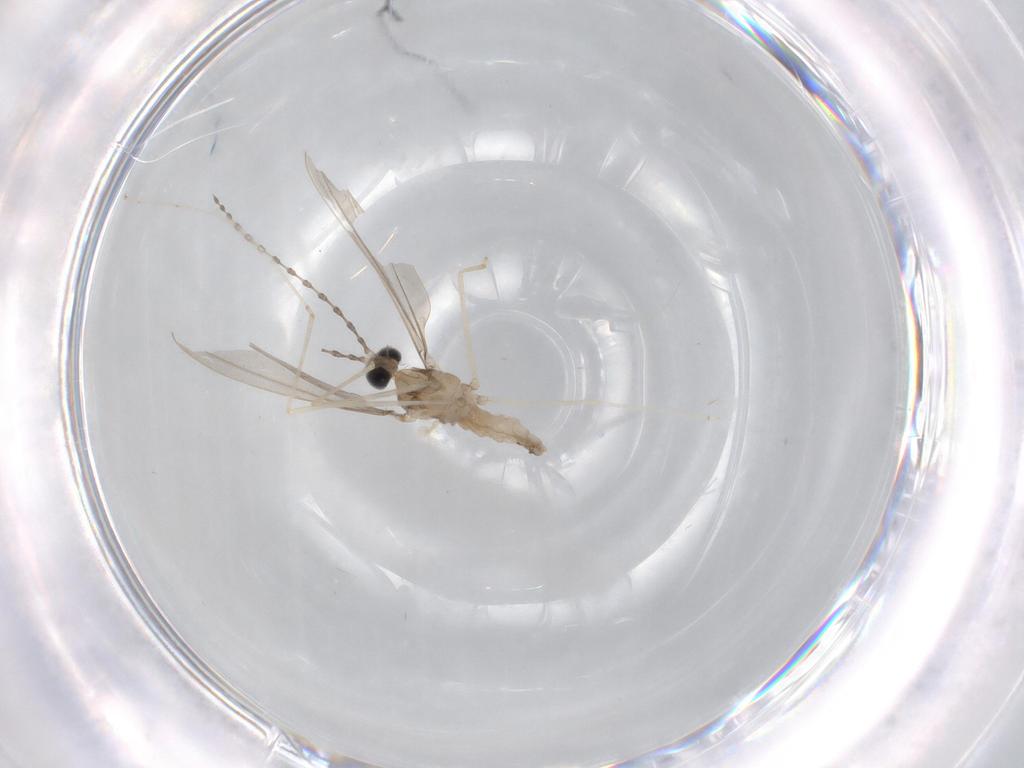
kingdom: Animalia
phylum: Arthropoda
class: Insecta
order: Diptera
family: Cecidomyiidae
